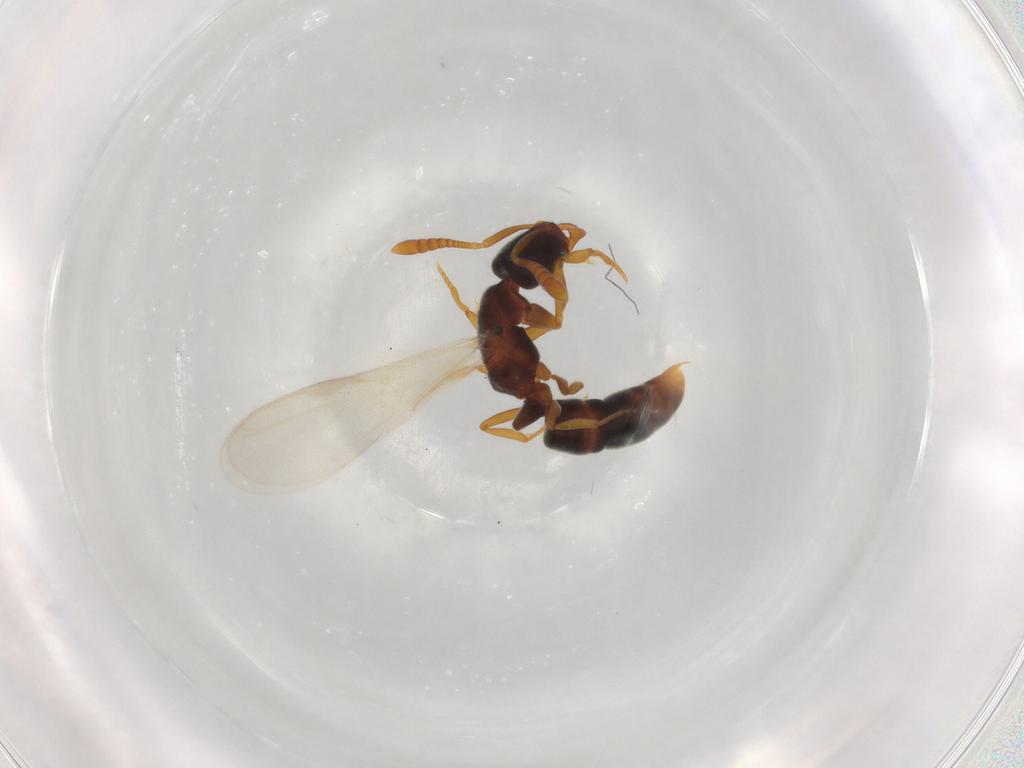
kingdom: Animalia
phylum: Arthropoda
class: Insecta
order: Hymenoptera
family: Formicidae
